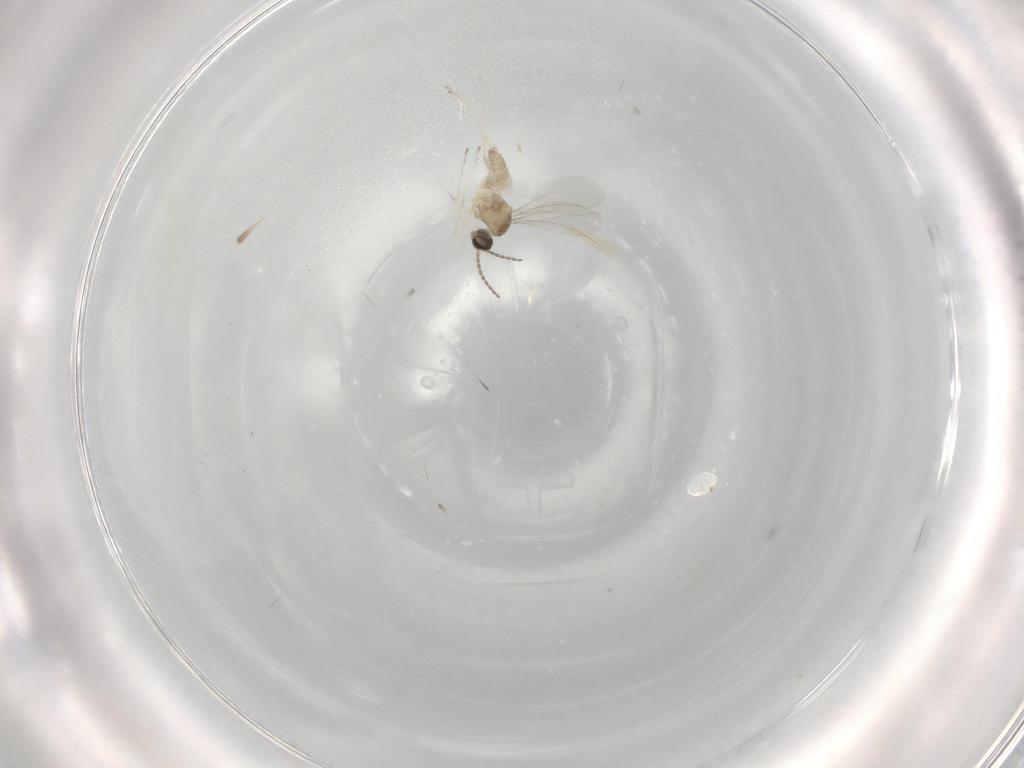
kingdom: Animalia
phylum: Arthropoda
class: Insecta
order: Diptera
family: Cecidomyiidae
